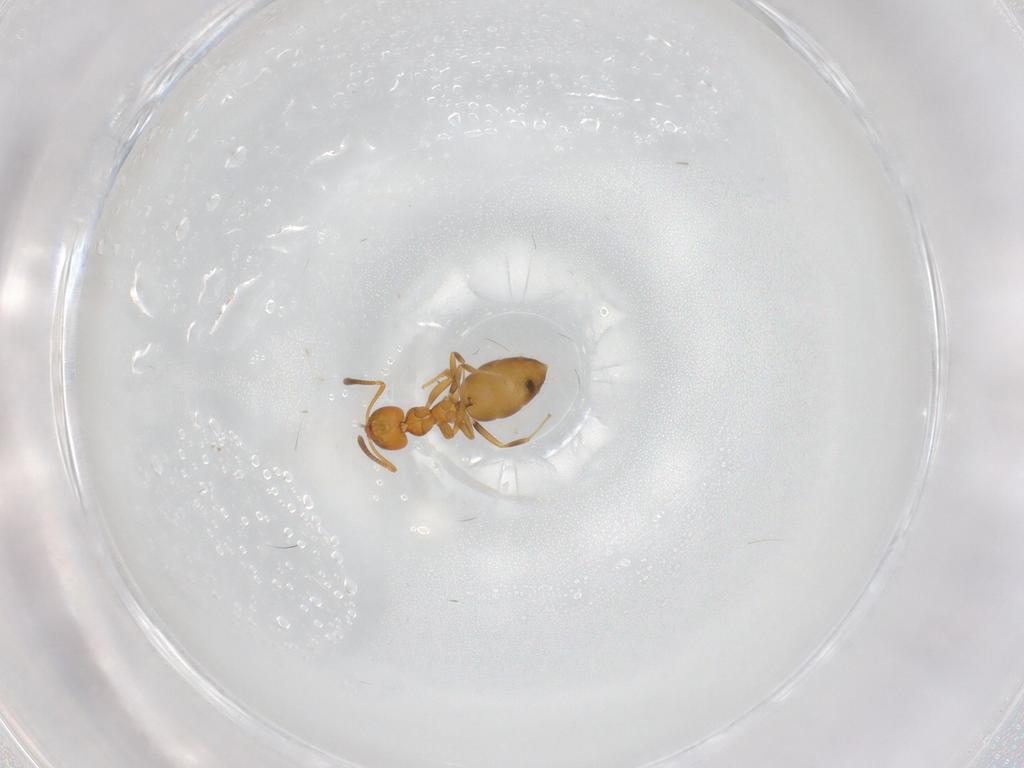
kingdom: Animalia
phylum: Arthropoda
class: Insecta
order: Hymenoptera
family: Formicidae
